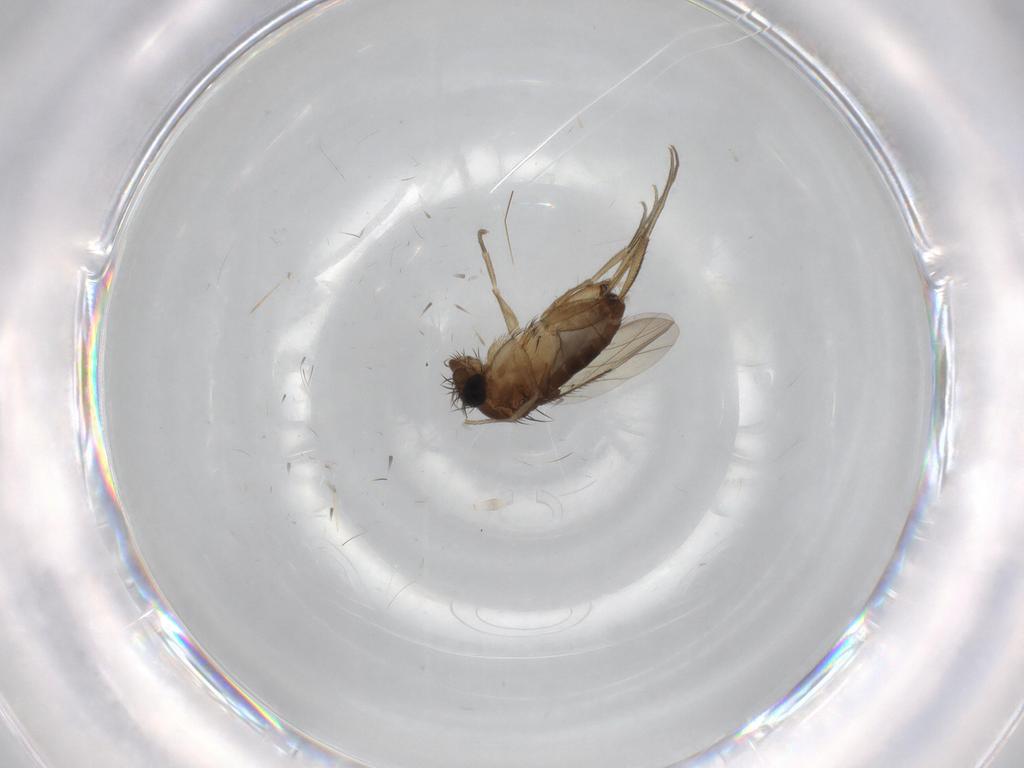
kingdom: Animalia
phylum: Arthropoda
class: Insecta
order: Diptera
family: Phoridae
